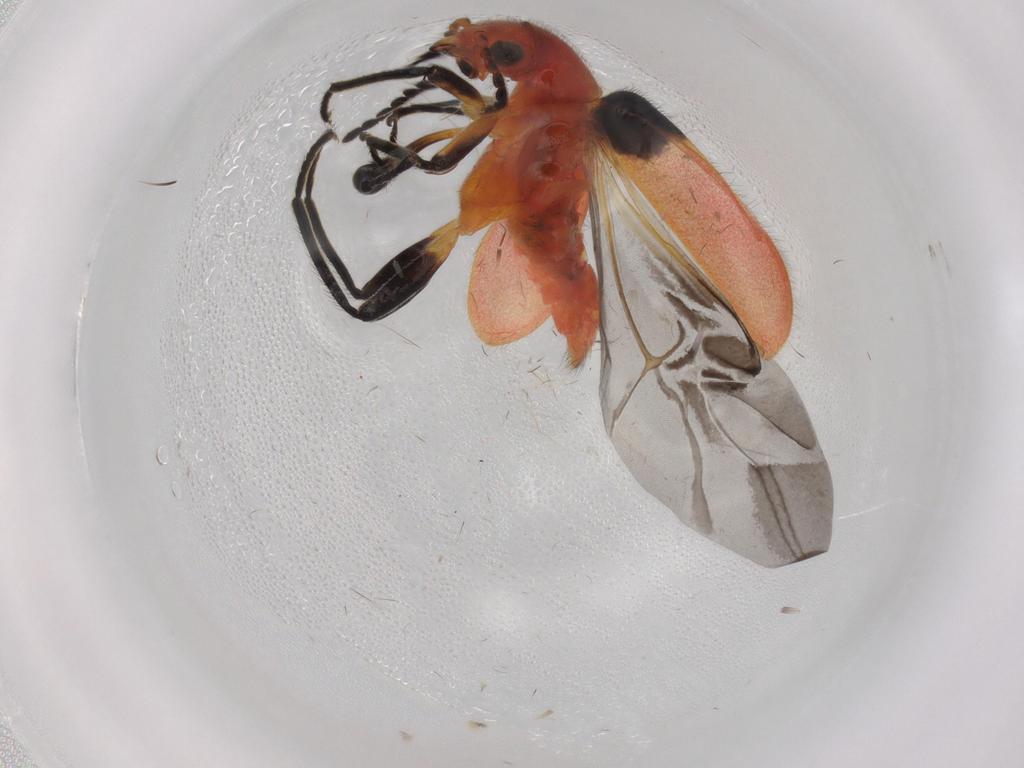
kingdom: Animalia
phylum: Arthropoda
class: Insecta
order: Coleoptera
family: Melyridae
